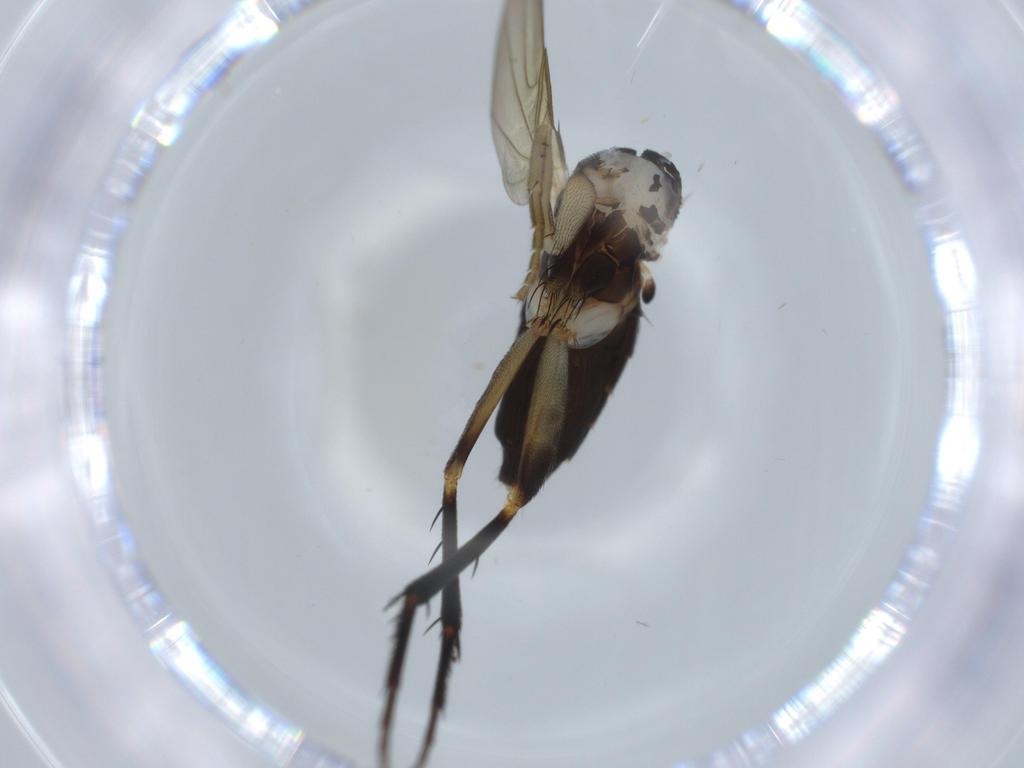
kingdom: Animalia
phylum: Arthropoda
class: Insecta
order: Diptera
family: Phoridae
